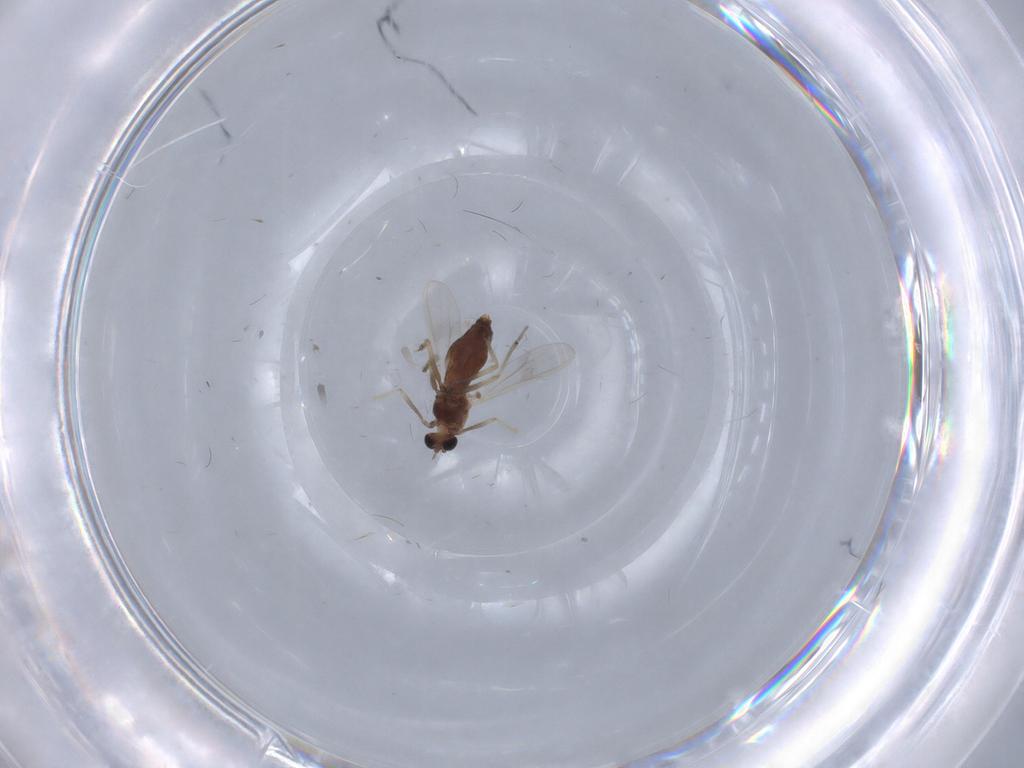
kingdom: Animalia
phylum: Arthropoda
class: Insecta
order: Diptera
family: Chironomidae
